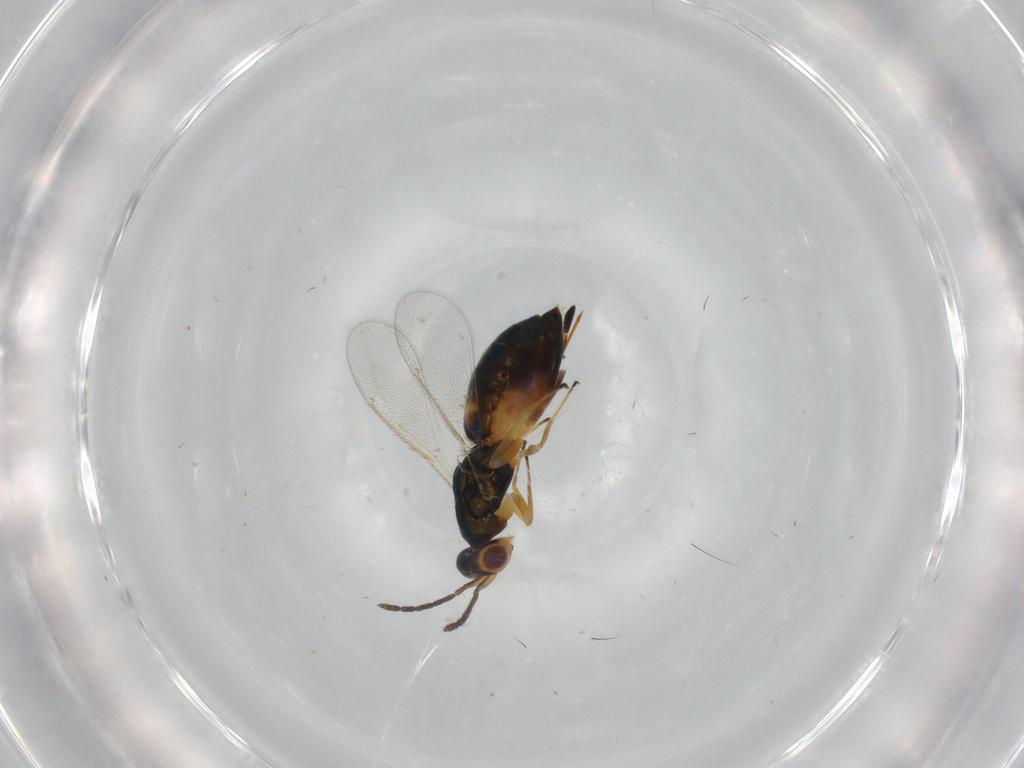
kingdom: Animalia
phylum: Arthropoda
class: Insecta
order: Hymenoptera
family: Eulophidae
